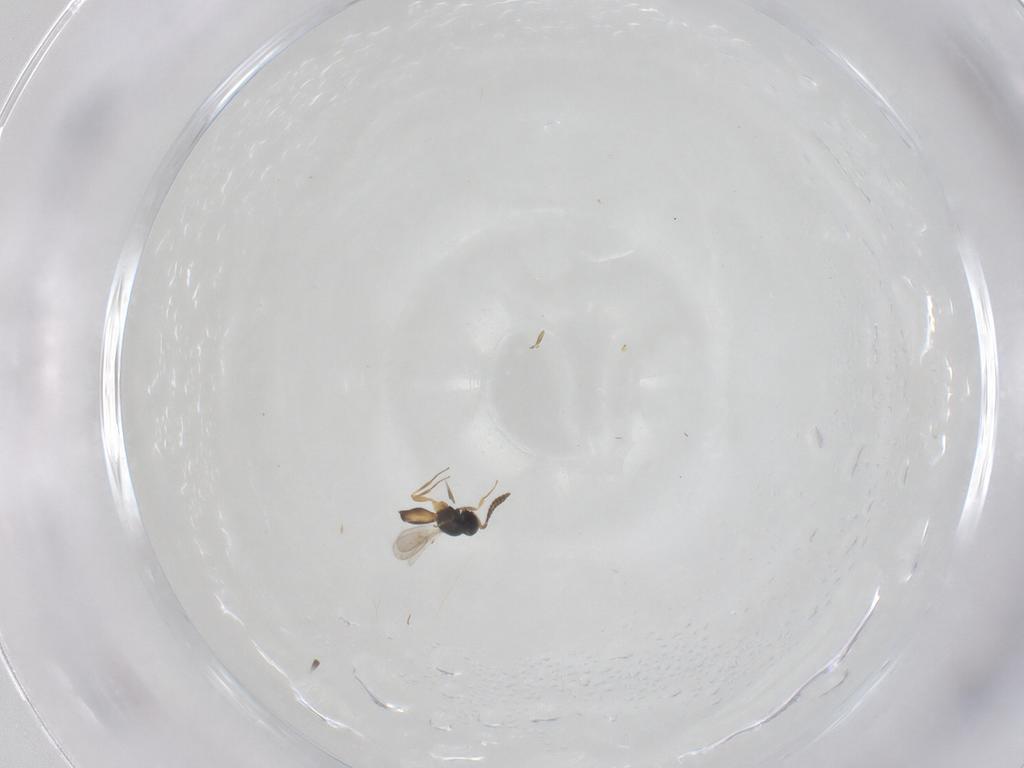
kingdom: Animalia
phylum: Arthropoda
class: Insecta
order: Hymenoptera
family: Scelionidae
